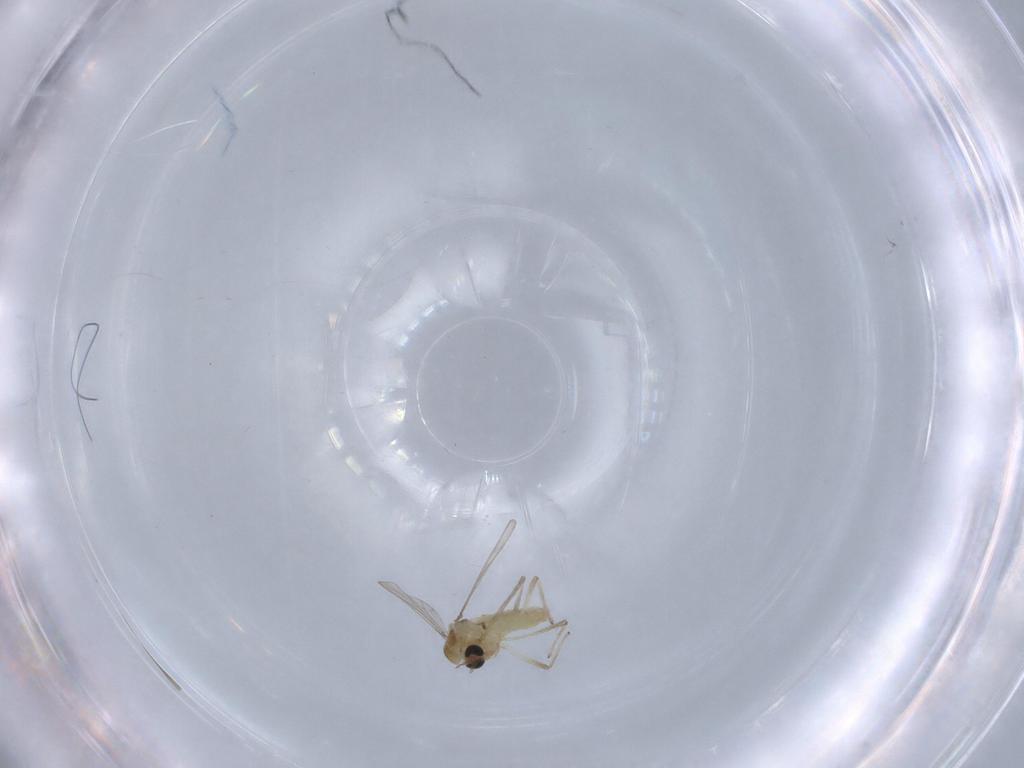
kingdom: Animalia
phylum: Arthropoda
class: Insecta
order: Diptera
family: Chironomidae
